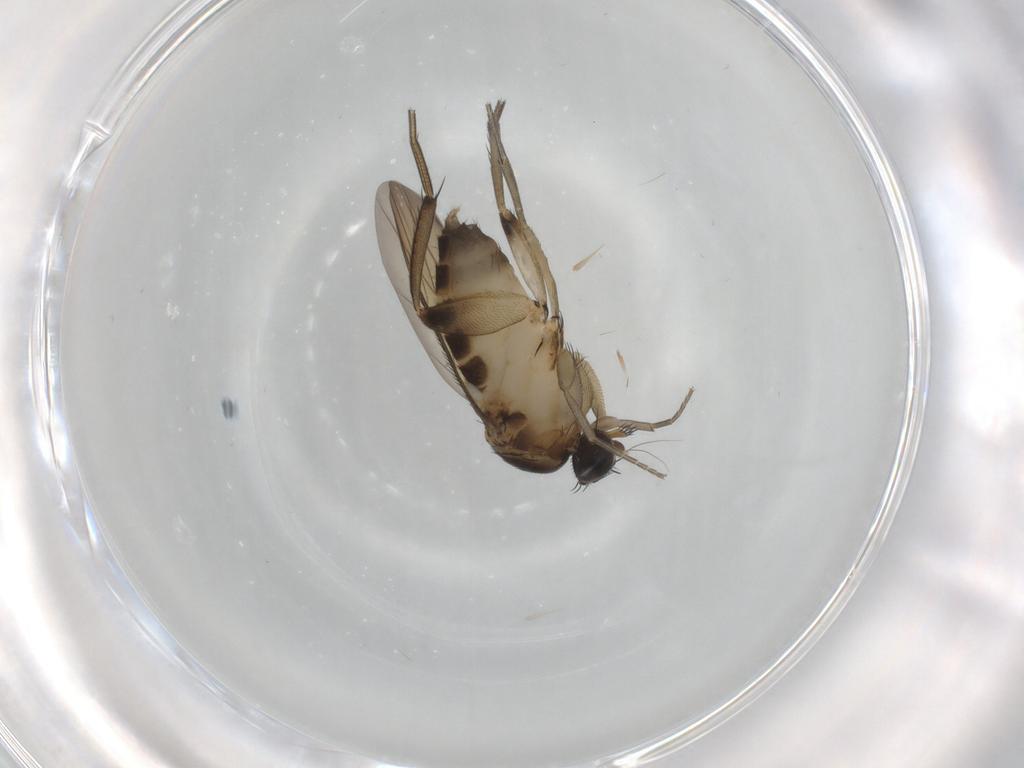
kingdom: Animalia
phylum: Arthropoda
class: Insecta
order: Diptera
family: Phoridae
